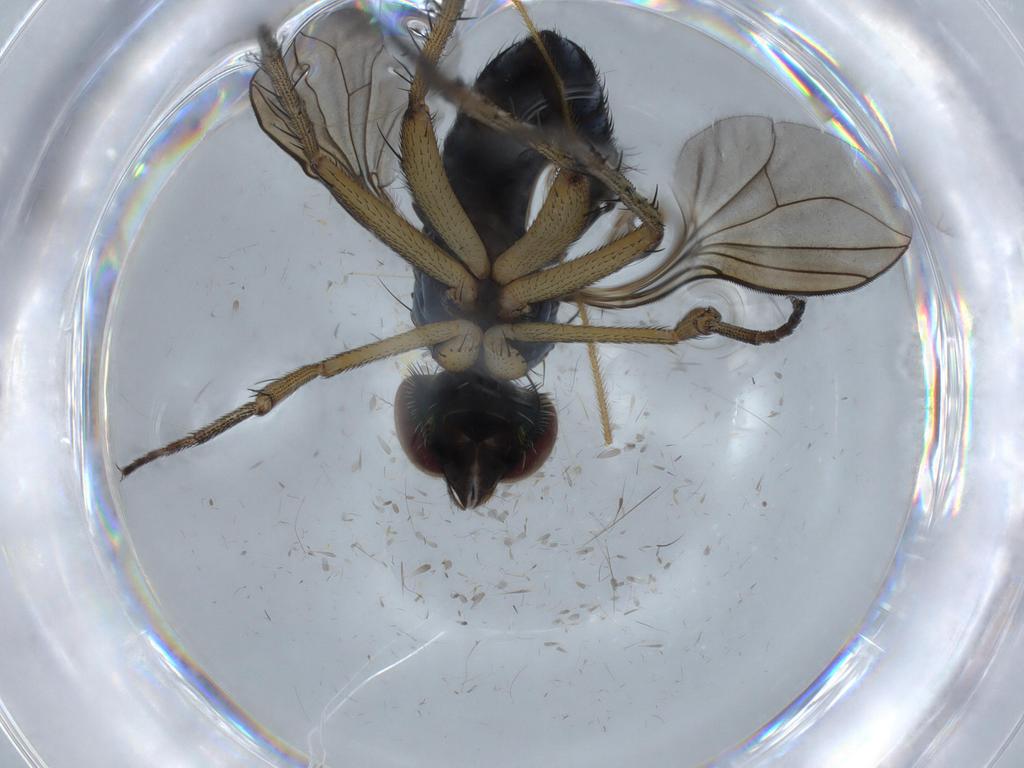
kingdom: Animalia
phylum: Arthropoda
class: Insecta
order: Diptera
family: Dolichopodidae
